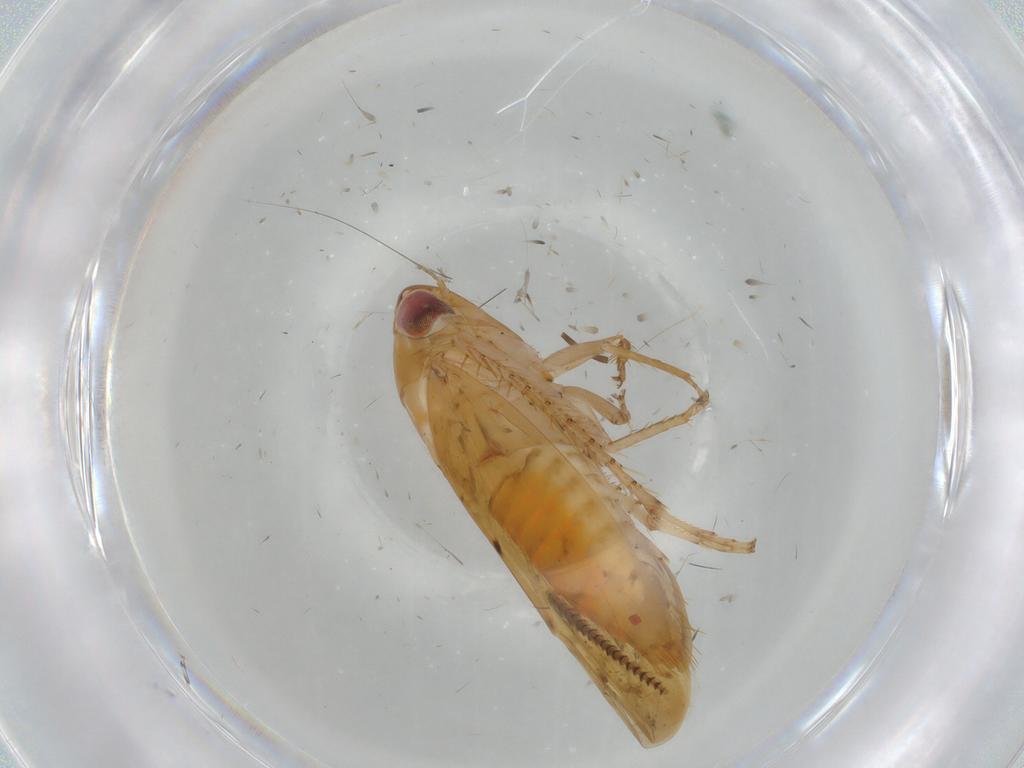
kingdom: Animalia
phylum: Arthropoda
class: Insecta
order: Hemiptera
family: Cicadellidae
